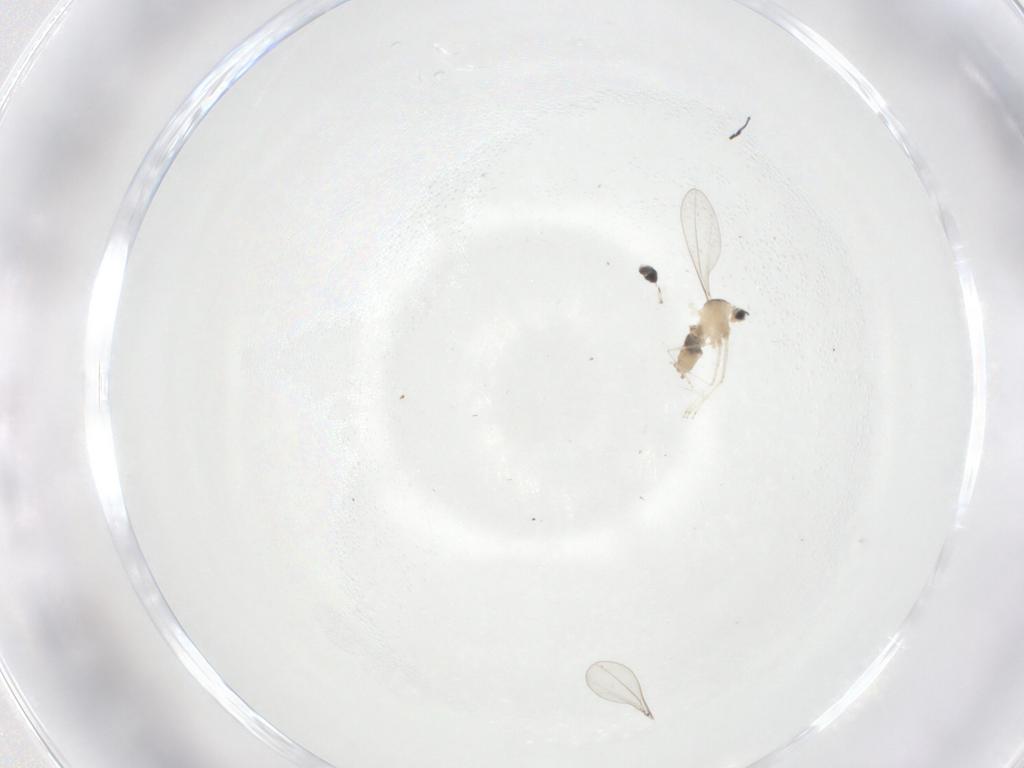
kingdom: Animalia
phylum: Arthropoda
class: Insecta
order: Diptera
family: Cecidomyiidae
